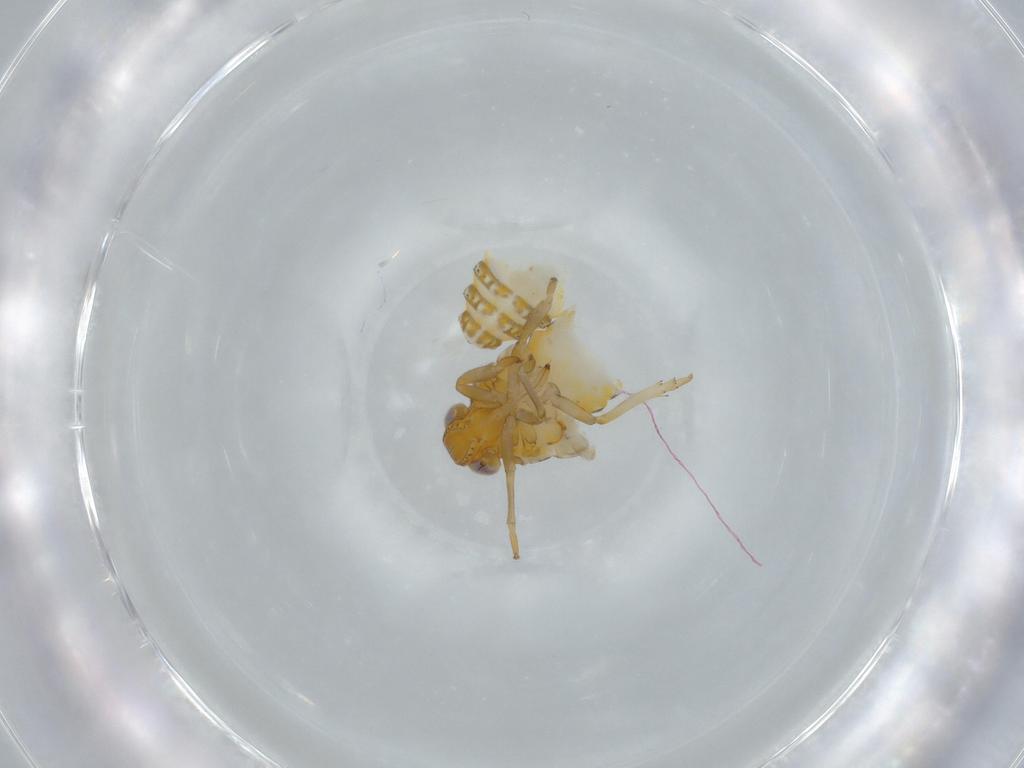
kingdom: Animalia
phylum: Arthropoda
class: Insecta
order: Hemiptera
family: Issidae
